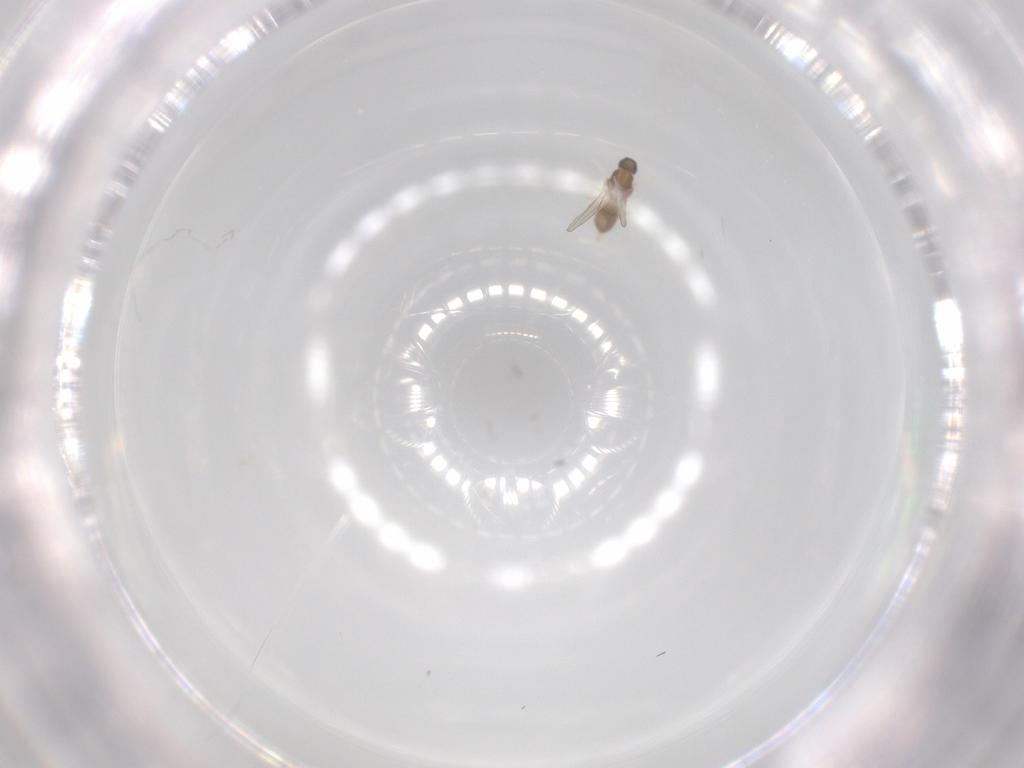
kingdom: Animalia
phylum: Arthropoda
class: Insecta
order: Diptera
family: Cecidomyiidae
